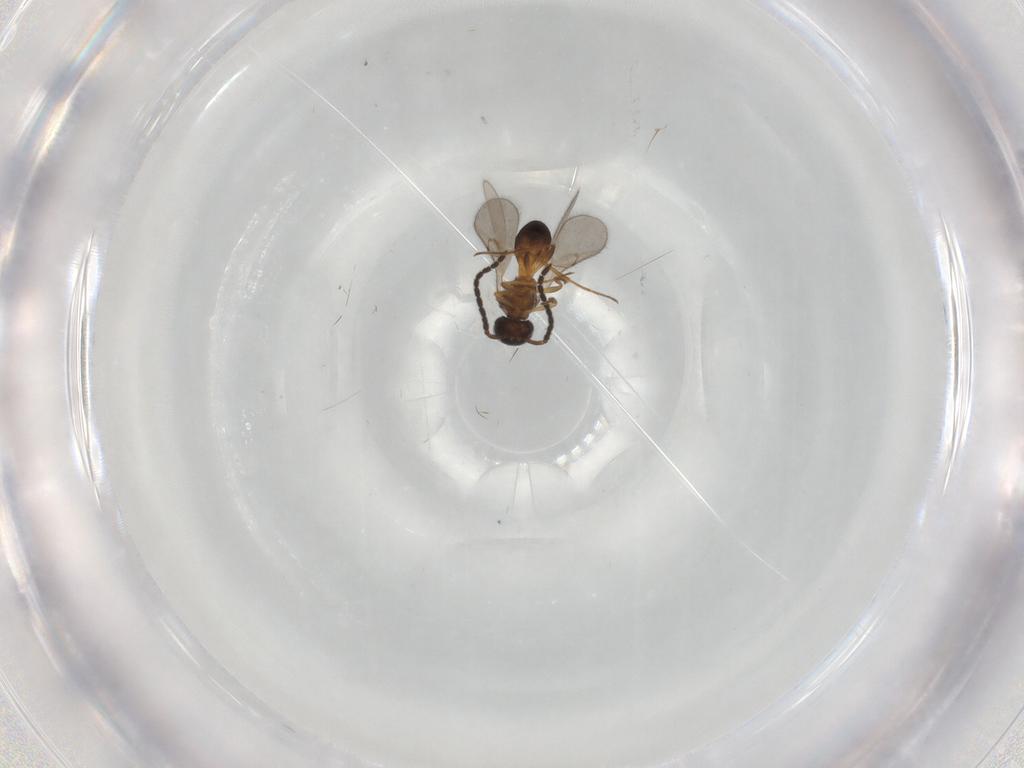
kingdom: Animalia
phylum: Arthropoda
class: Insecta
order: Hymenoptera
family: Scelionidae
